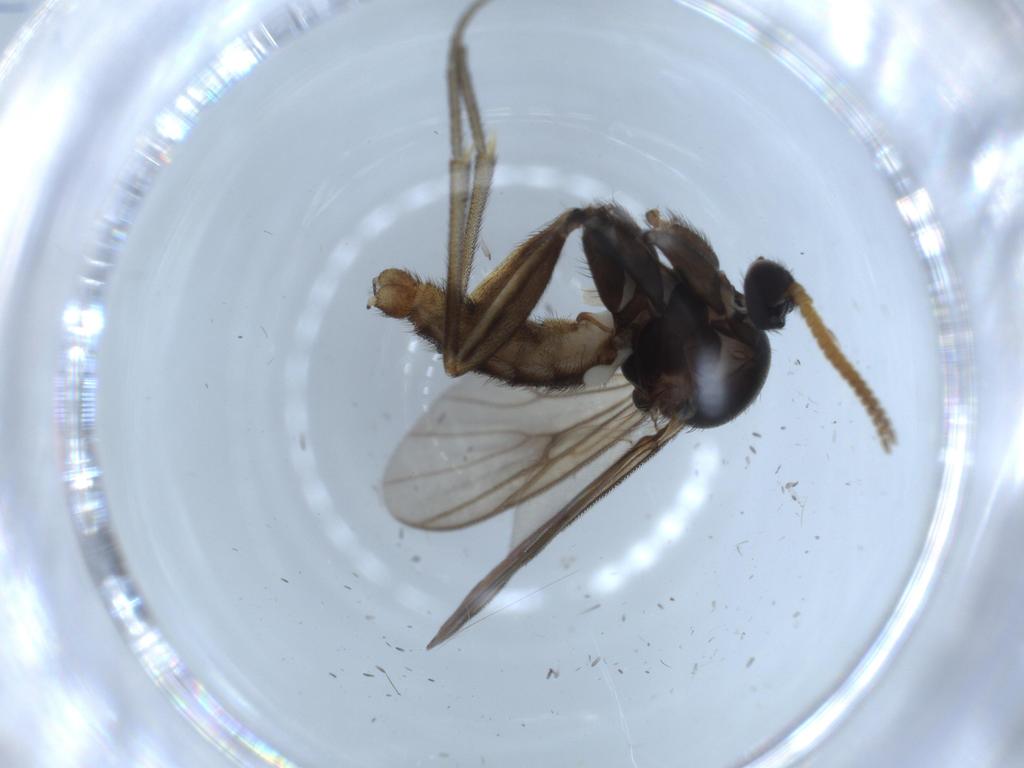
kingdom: Animalia
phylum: Arthropoda
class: Insecta
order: Diptera
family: Mycetophilidae
